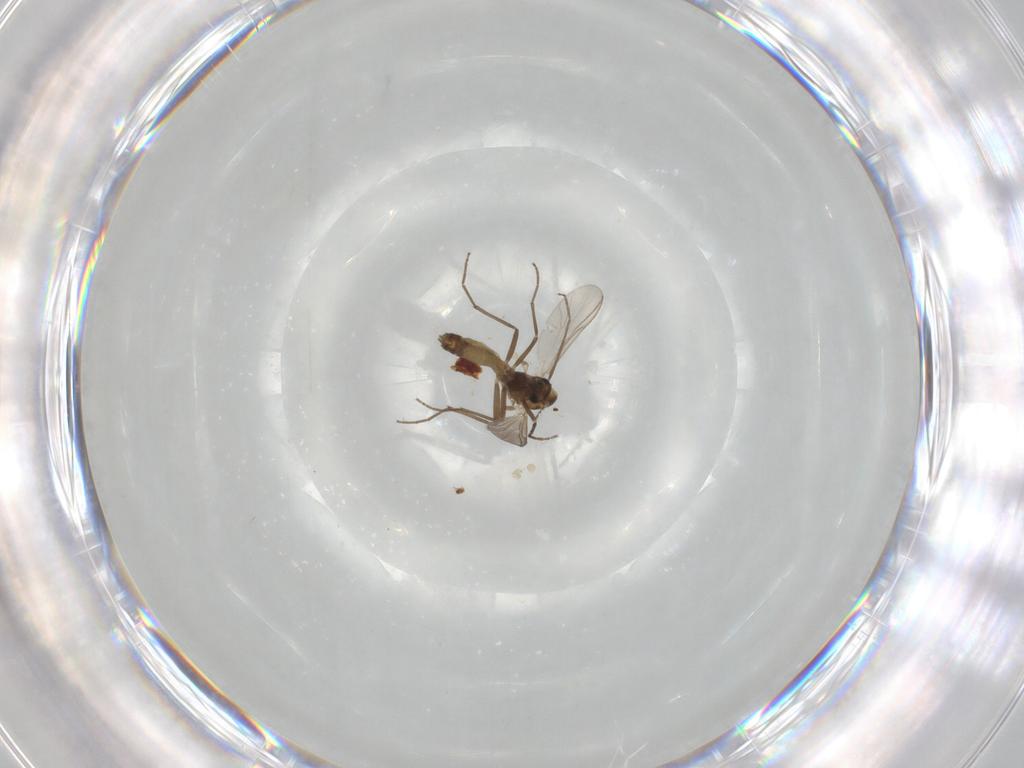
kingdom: Animalia
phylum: Arthropoda
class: Insecta
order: Diptera
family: Chironomidae
